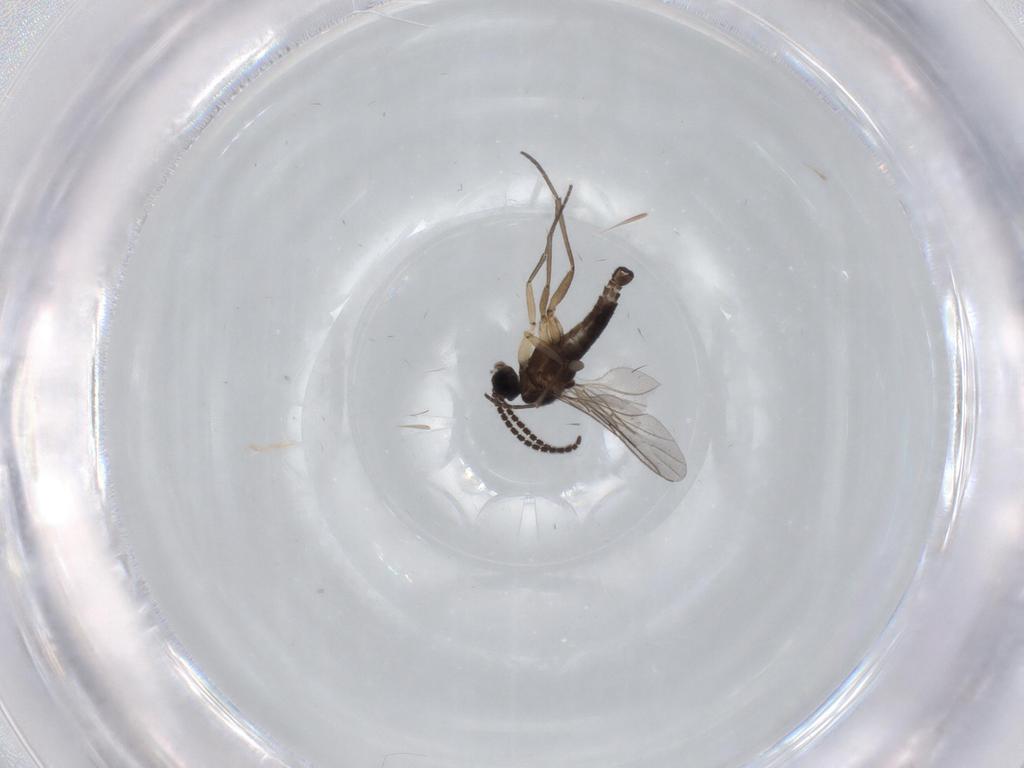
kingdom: Animalia
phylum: Arthropoda
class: Insecta
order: Diptera
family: Sciaridae
